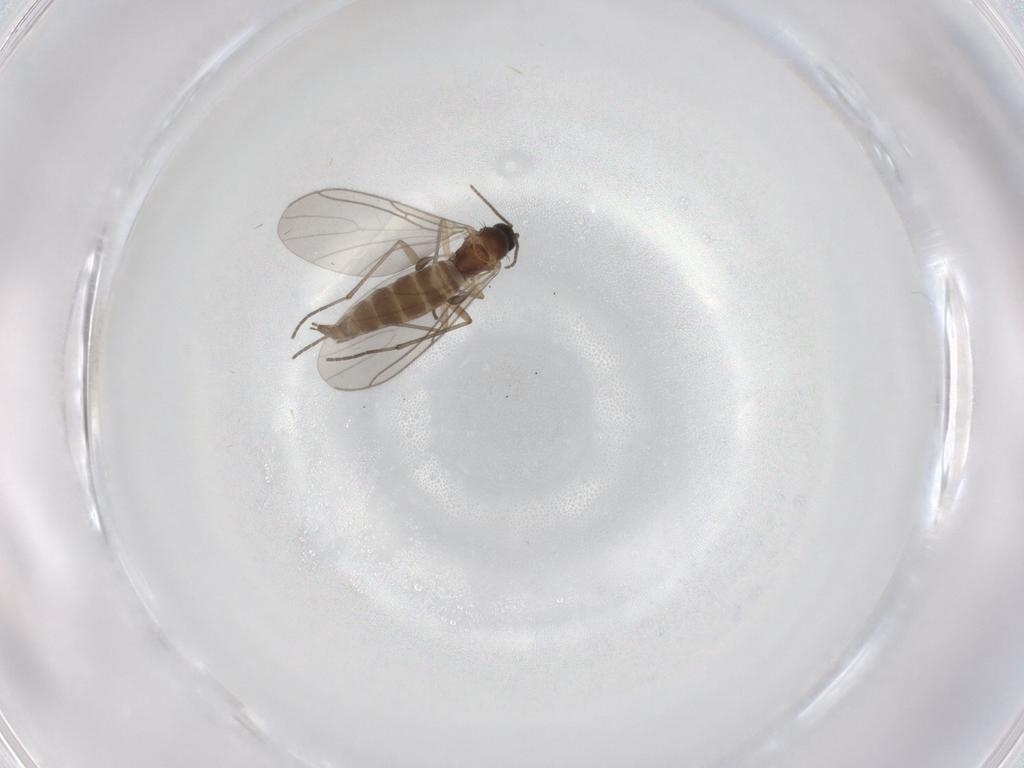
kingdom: Animalia
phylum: Arthropoda
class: Insecta
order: Diptera
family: Sciaridae
